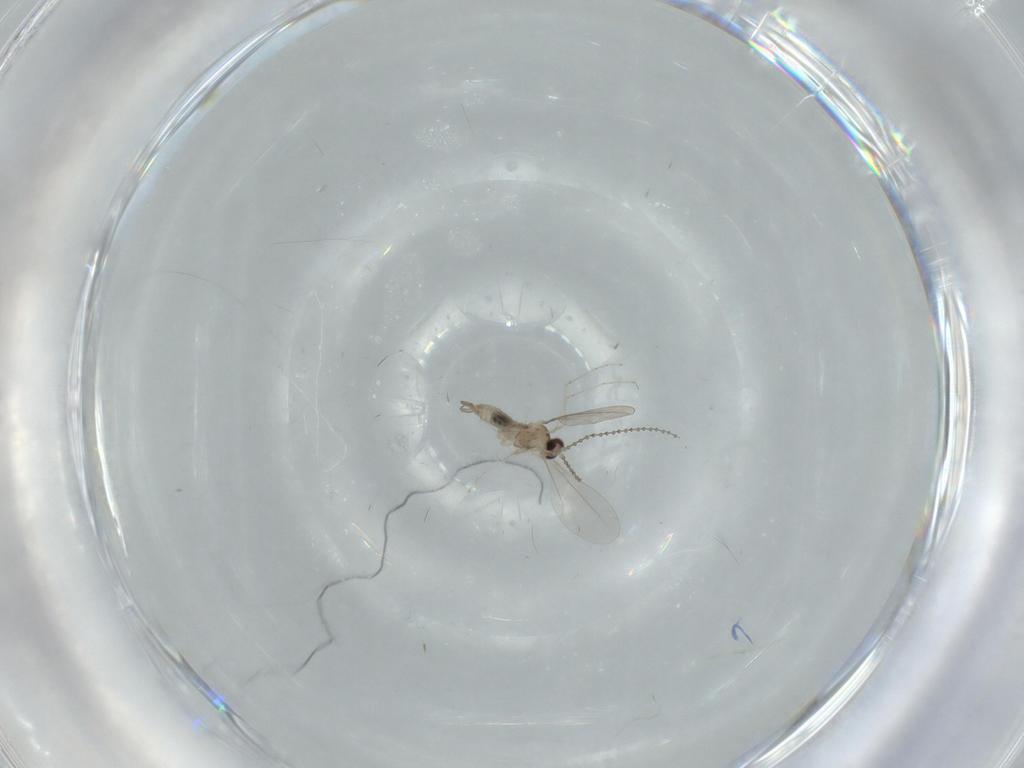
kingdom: Animalia
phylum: Arthropoda
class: Insecta
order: Diptera
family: Cecidomyiidae
